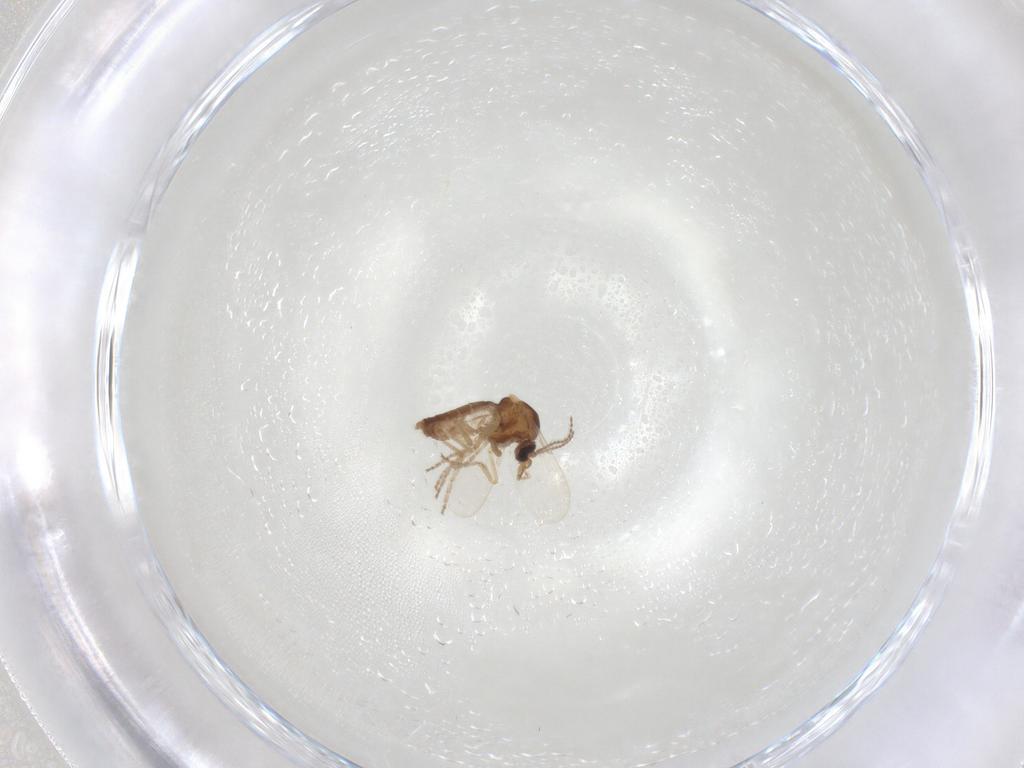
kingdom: Animalia
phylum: Arthropoda
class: Insecta
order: Diptera
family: Ceratopogonidae
